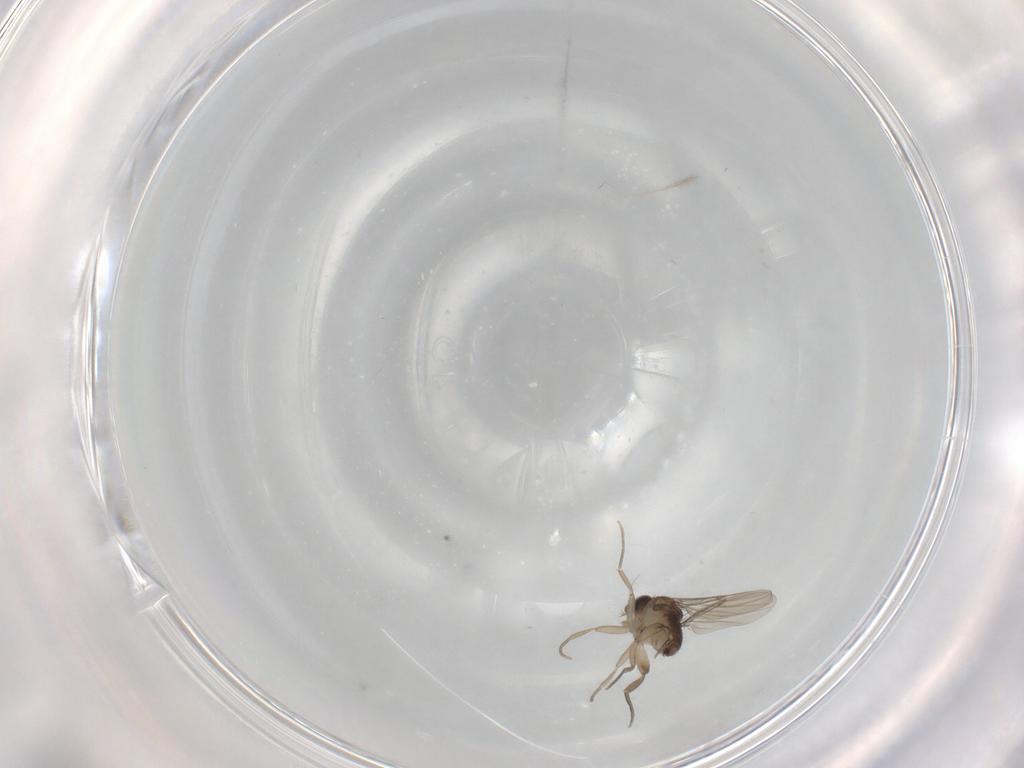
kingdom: Animalia
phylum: Arthropoda
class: Insecta
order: Diptera
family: Phoridae
